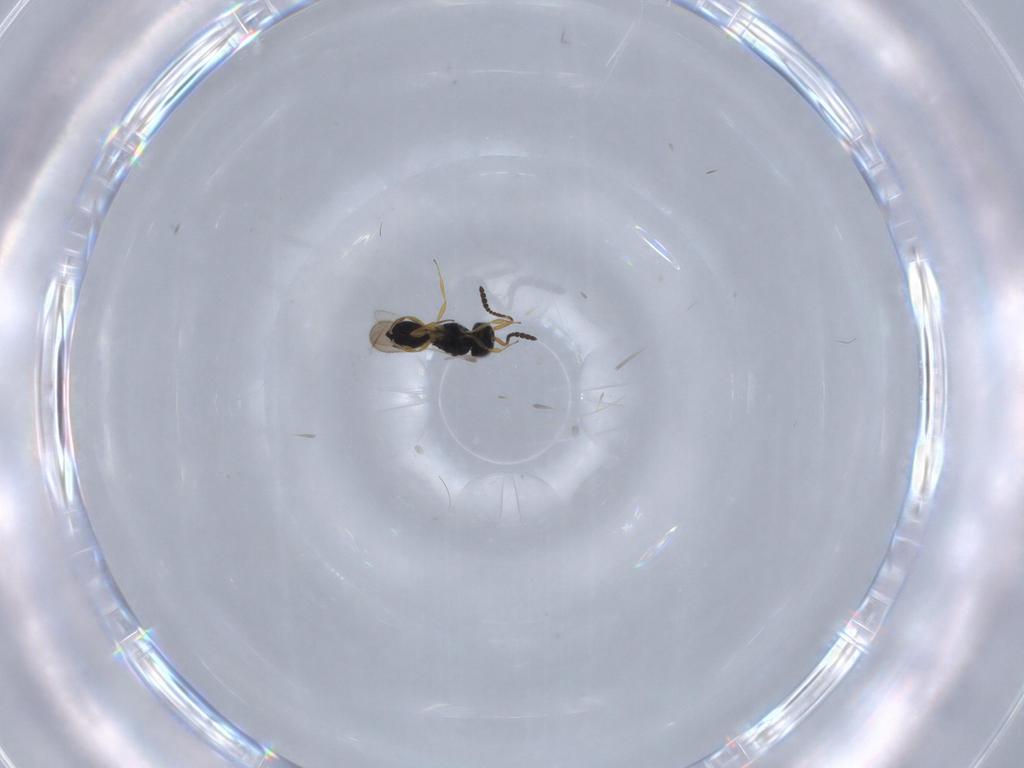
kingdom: Animalia
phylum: Arthropoda
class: Insecta
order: Hymenoptera
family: Scelionidae
